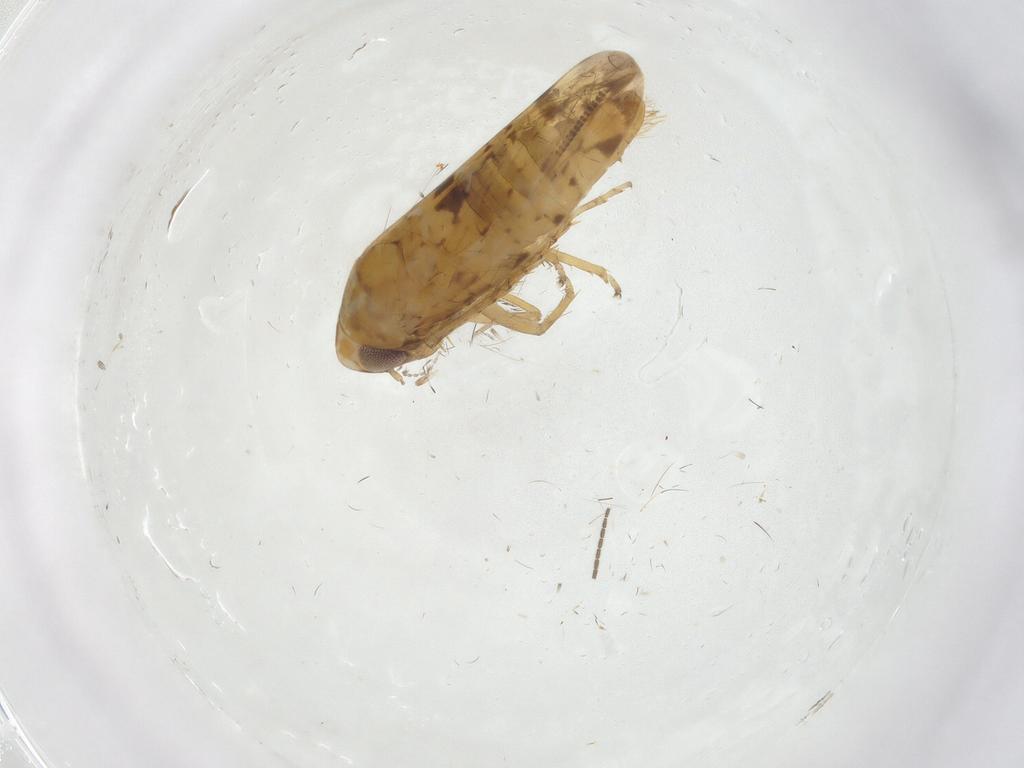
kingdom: Animalia
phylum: Arthropoda
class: Insecta
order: Hemiptera
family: Cicadellidae
